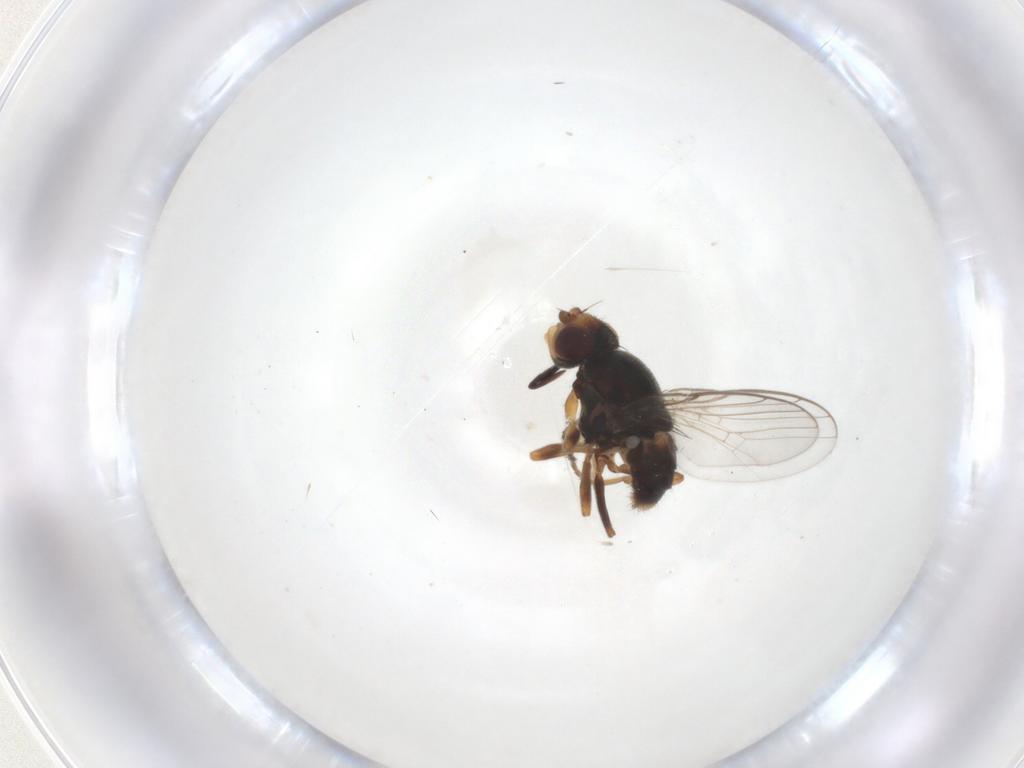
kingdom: Animalia
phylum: Arthropoda
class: Insecta
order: Diptera
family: Chloropidae
